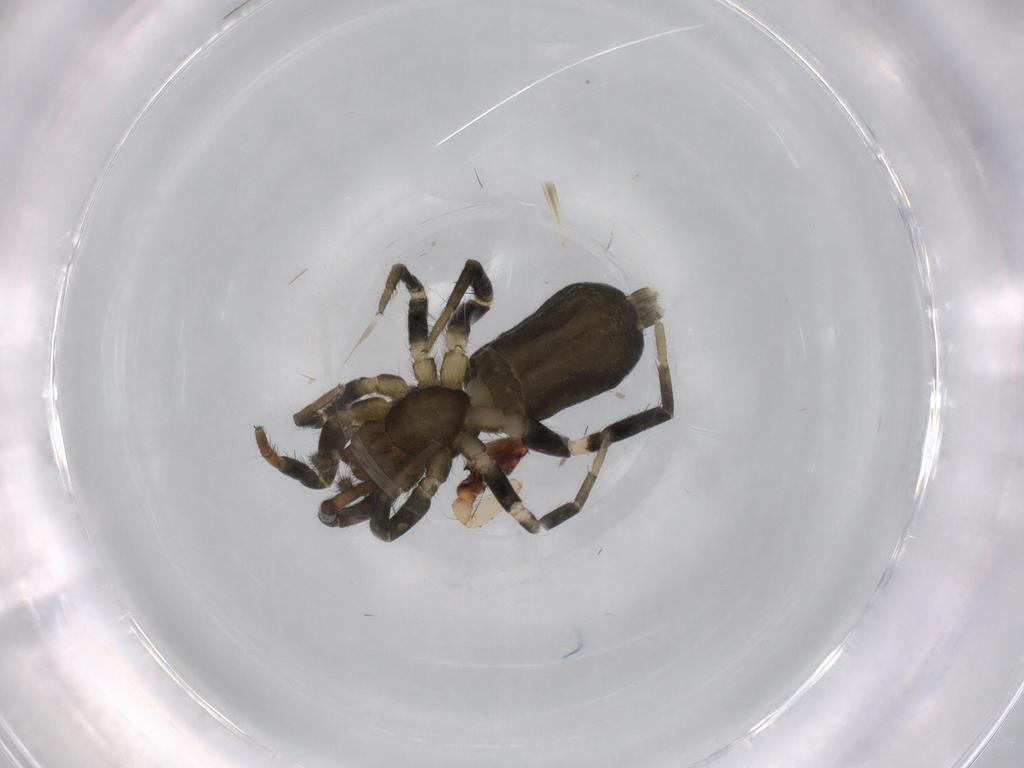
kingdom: Animalia
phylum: Arthropoda
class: Arachnida
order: Araneae
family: Anyphaenidae
